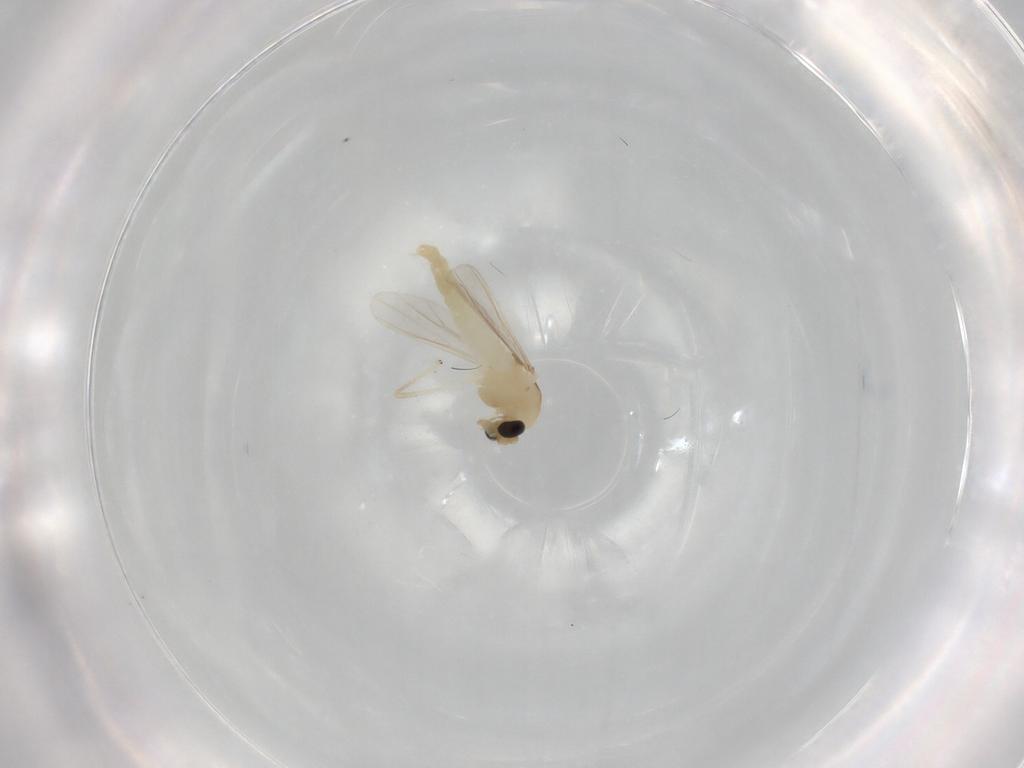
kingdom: Animalia
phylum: Arthropoda
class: Insecta
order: Diptera
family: Chironomidae
